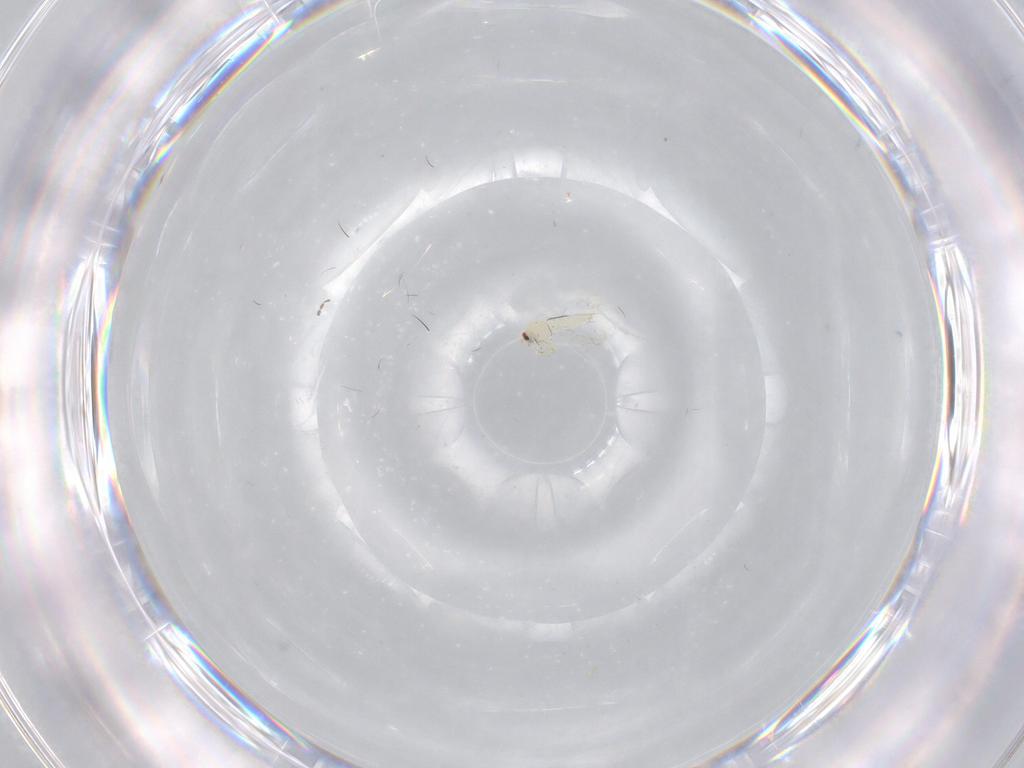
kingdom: Animalia
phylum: Arthropoda
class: Insecta
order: Hemiptera
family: Aleyrodidae
